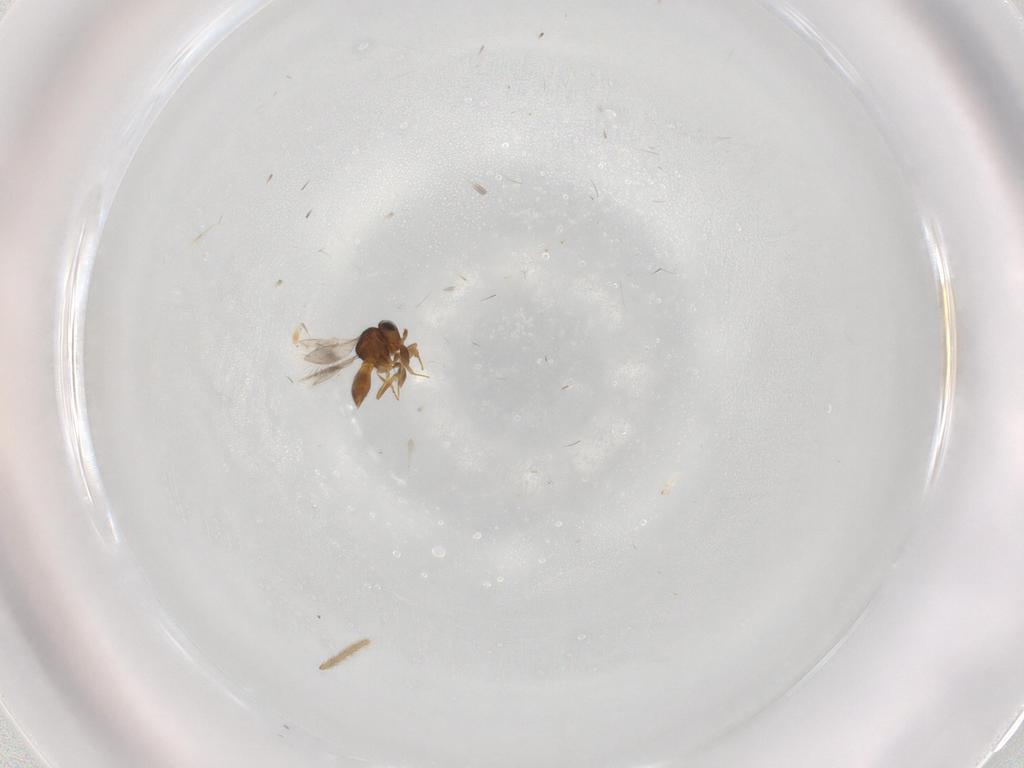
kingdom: Animalia
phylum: Arthropoda
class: Insecta
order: Hymenoptera
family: Scelionidae
